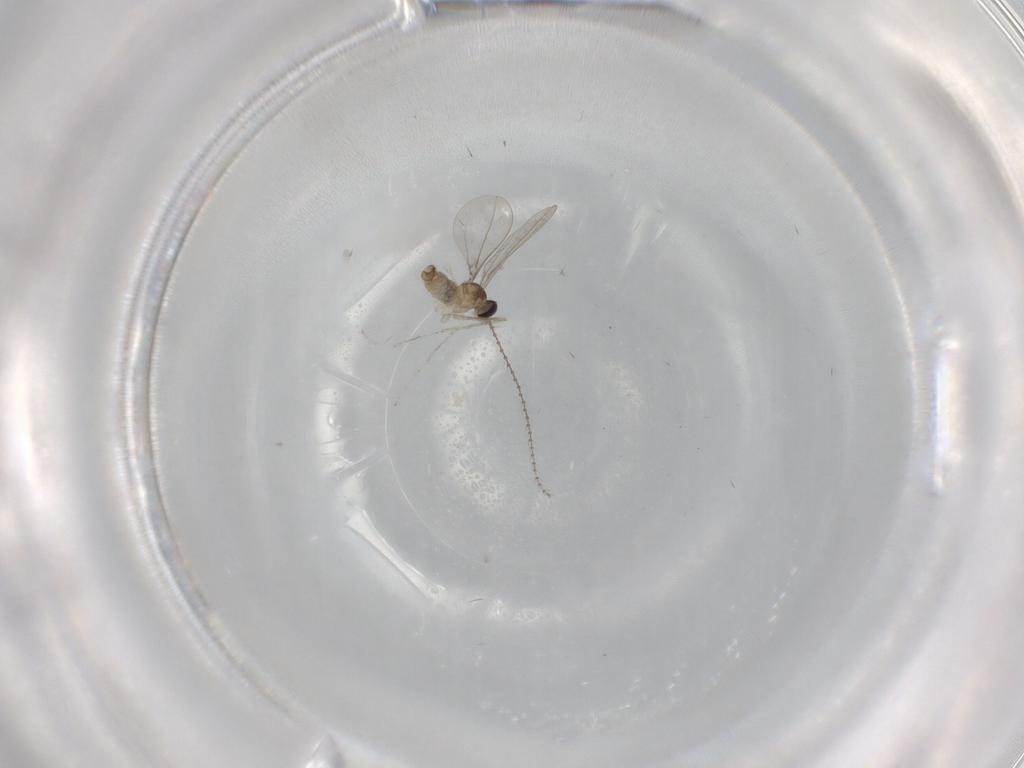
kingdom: Animalia
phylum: Arthropoda
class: Insecta
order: Diptera
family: Cecidomyiidae
